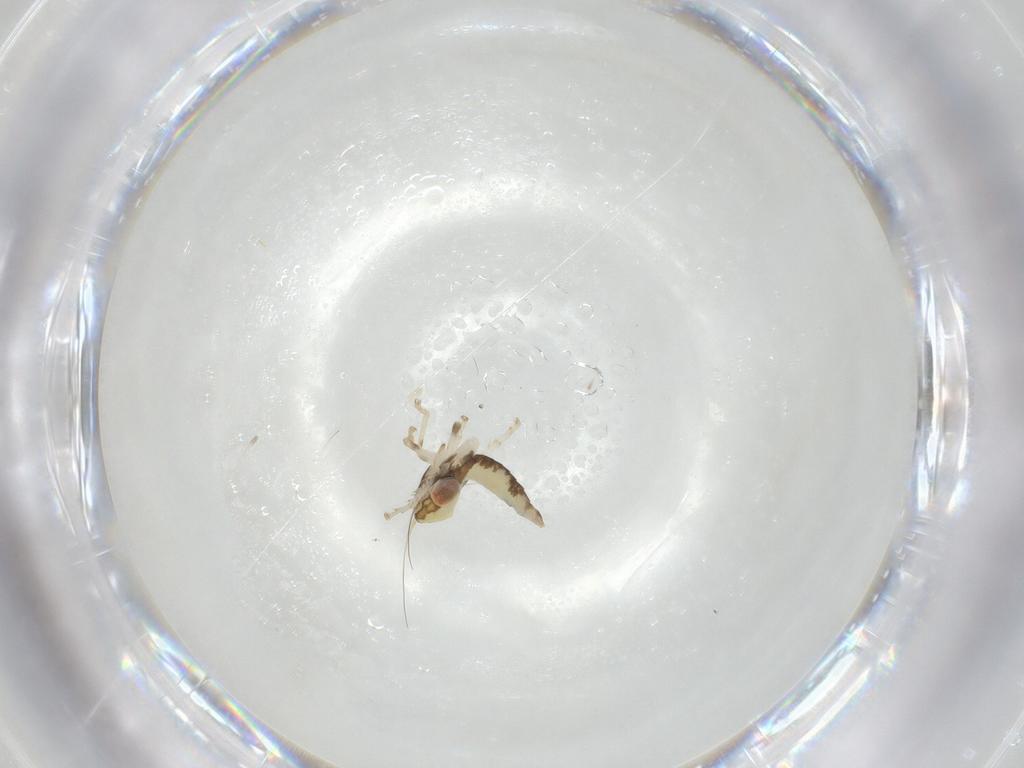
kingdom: Animalia
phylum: Arthropoda
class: Insecta
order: Hemiptera
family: Cicadellidae
